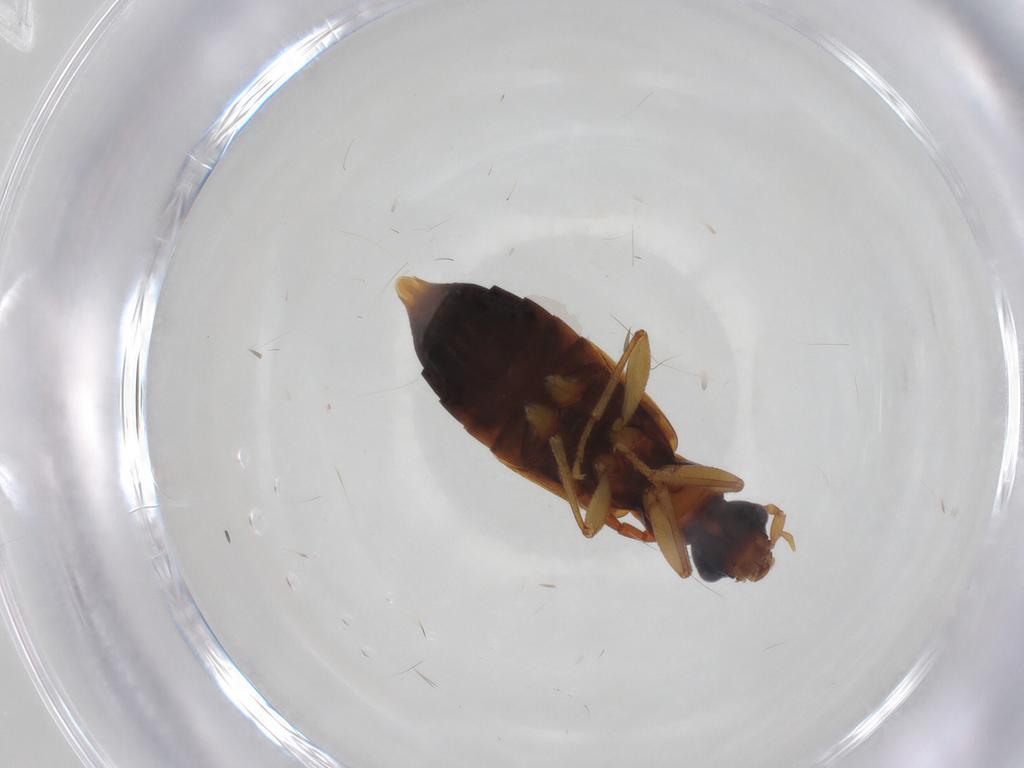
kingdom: Animalia
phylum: Arthropoda
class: Insecta
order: Coleoptera
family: Staphylinidae
